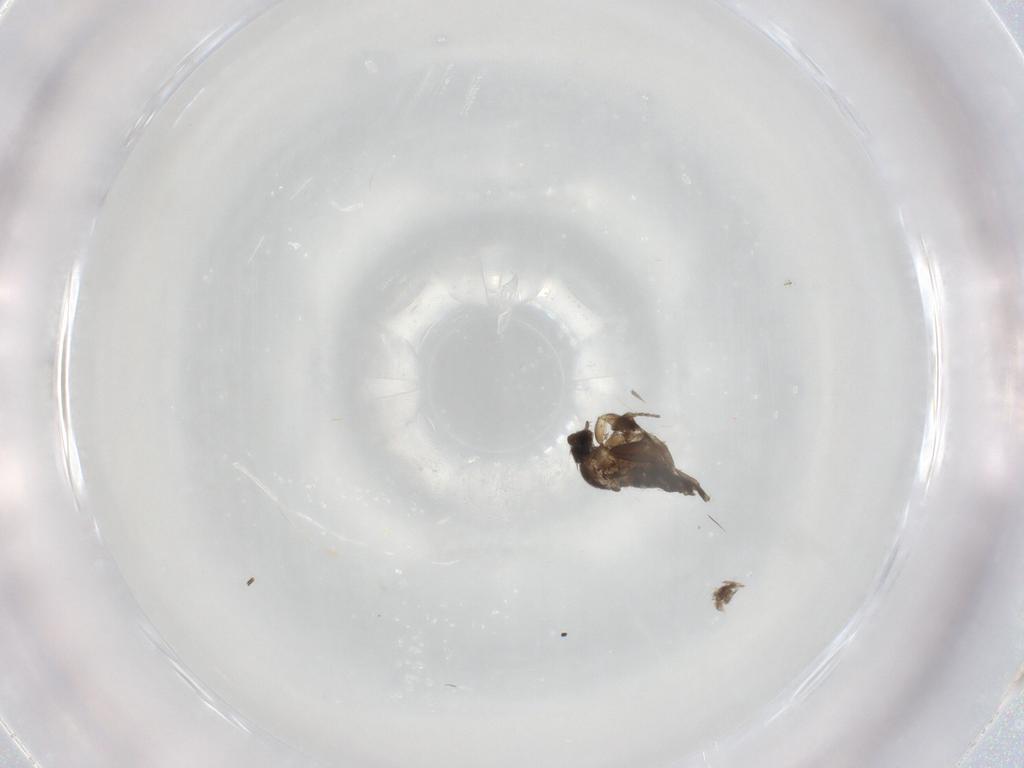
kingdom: Animalia
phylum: Arthropoda
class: Insecta
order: Diptera
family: Cecidomyiidae
